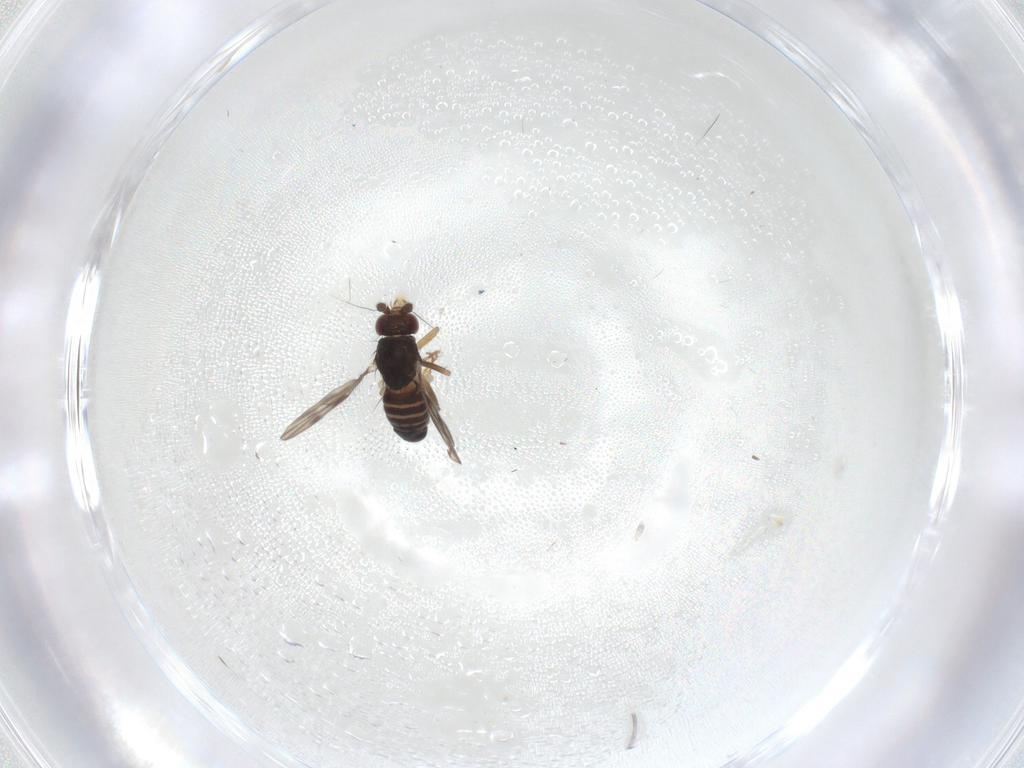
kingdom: Animalia
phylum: Arthropoda
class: Insecta
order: Diptera
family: Sphaeroceridae
